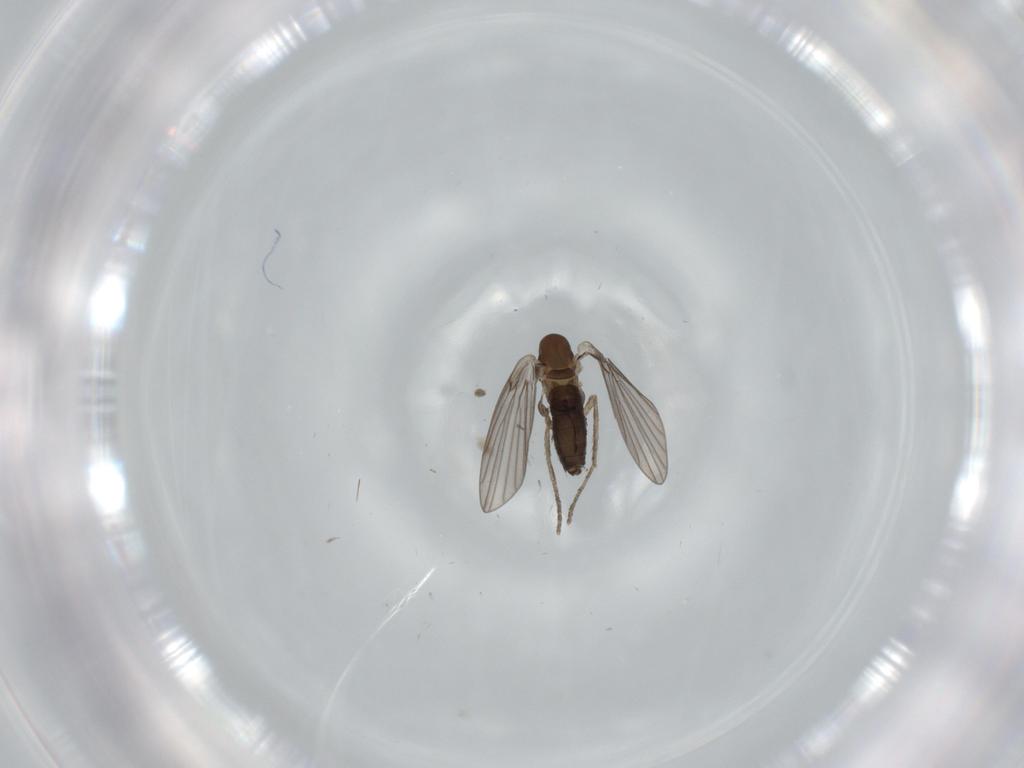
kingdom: Animalia
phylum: Arthropoda
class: Insecta
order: Diptera
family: Psychodidae
